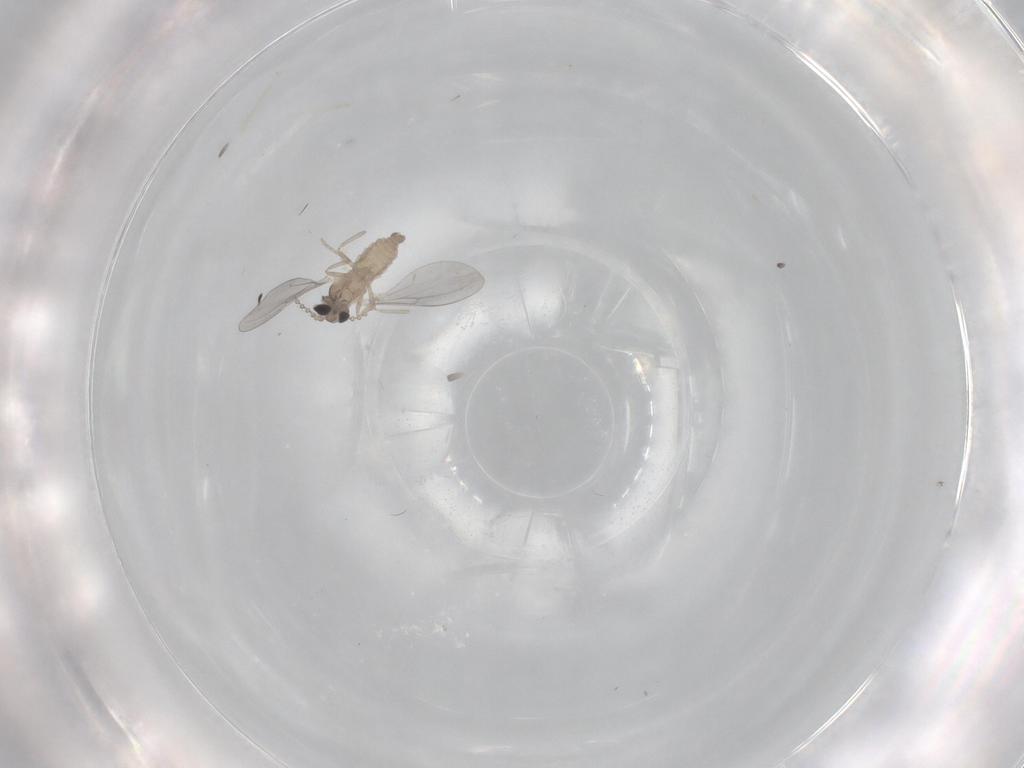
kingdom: Animalia
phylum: Arthropoda
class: Insecta
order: Diptera
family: Cecidomyiidae
